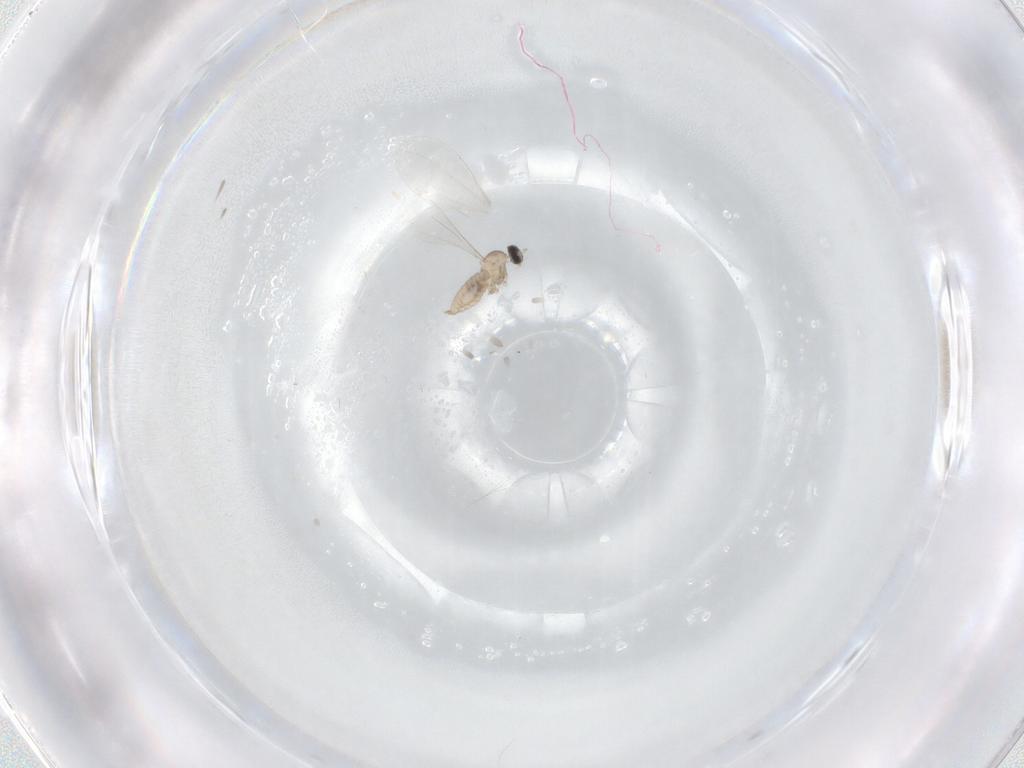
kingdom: Animalia
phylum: Arthropoda
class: Insecta
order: Diptera
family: Cecidomyiidae
